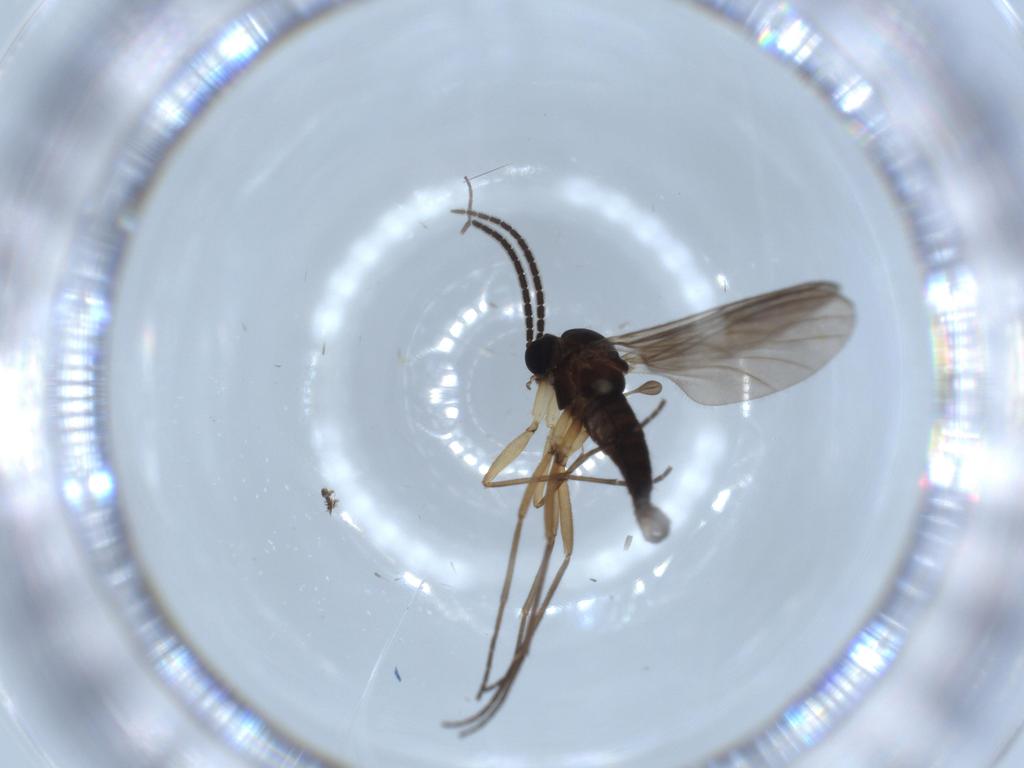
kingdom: Animalia
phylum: Arthropoda
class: Insecta
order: Diptera
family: Sciaridae
